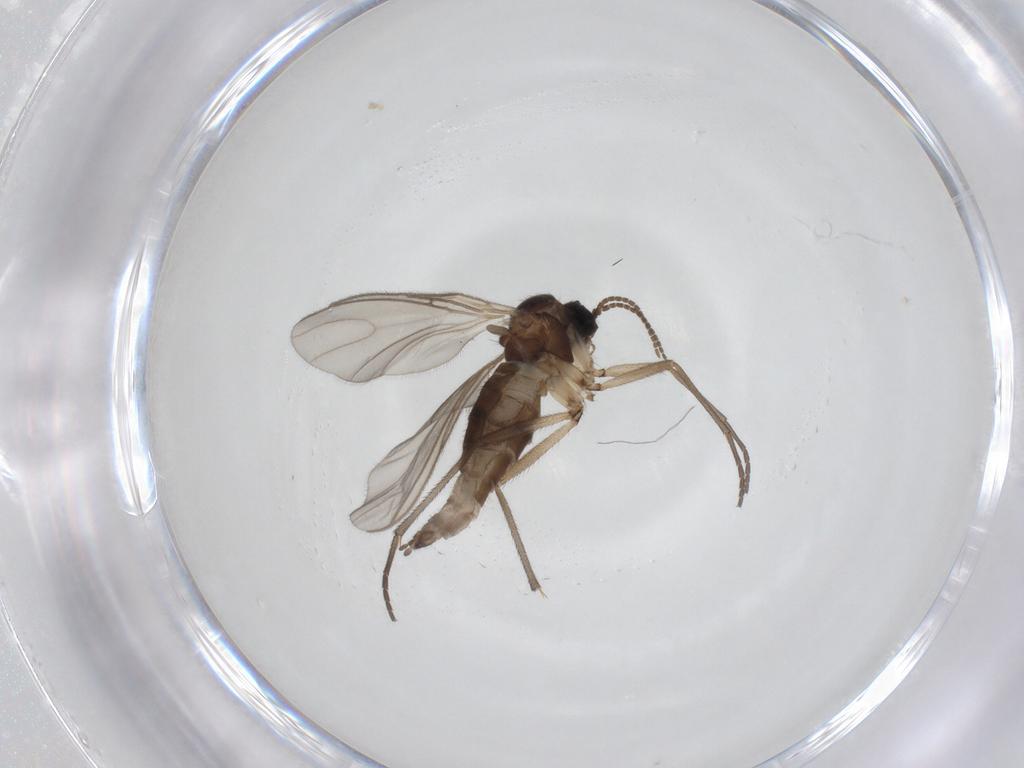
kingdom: Animalia
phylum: Arthropoda
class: Insecta
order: Diptera
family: Sciaridae
